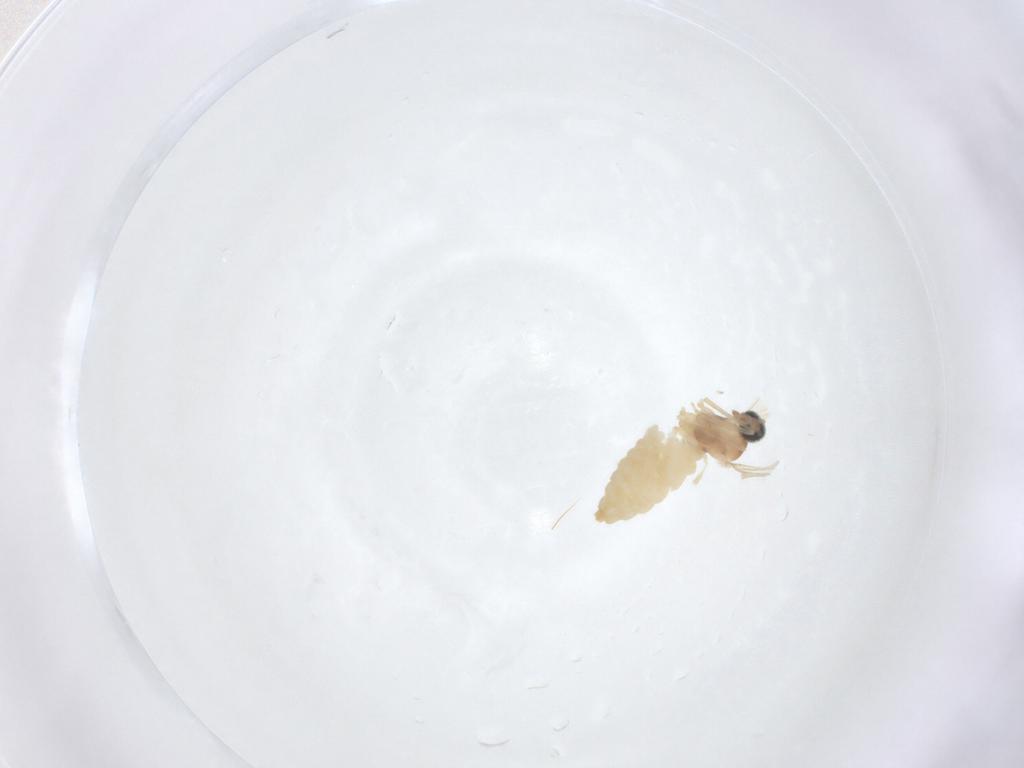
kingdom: Animalia
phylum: Arthropoda
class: Insecta
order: Diptera
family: Cecidomyiidae
